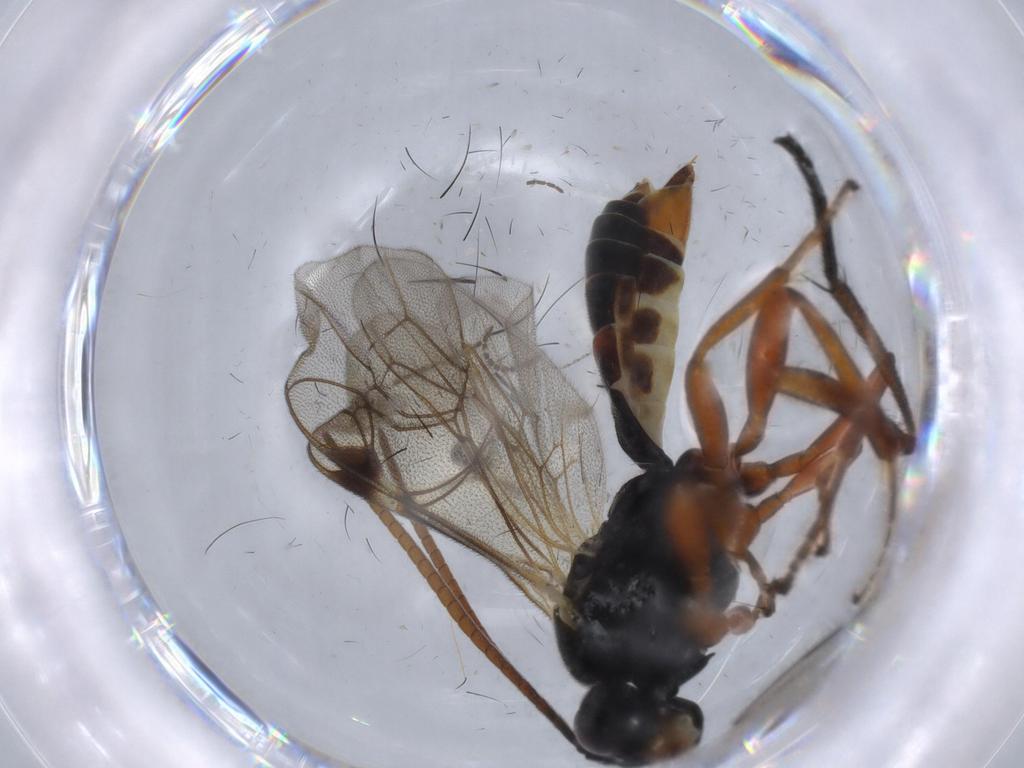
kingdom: Animalia
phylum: Arthropoda
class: Insecta
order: Hymenoptera
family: Ichneumonidae
